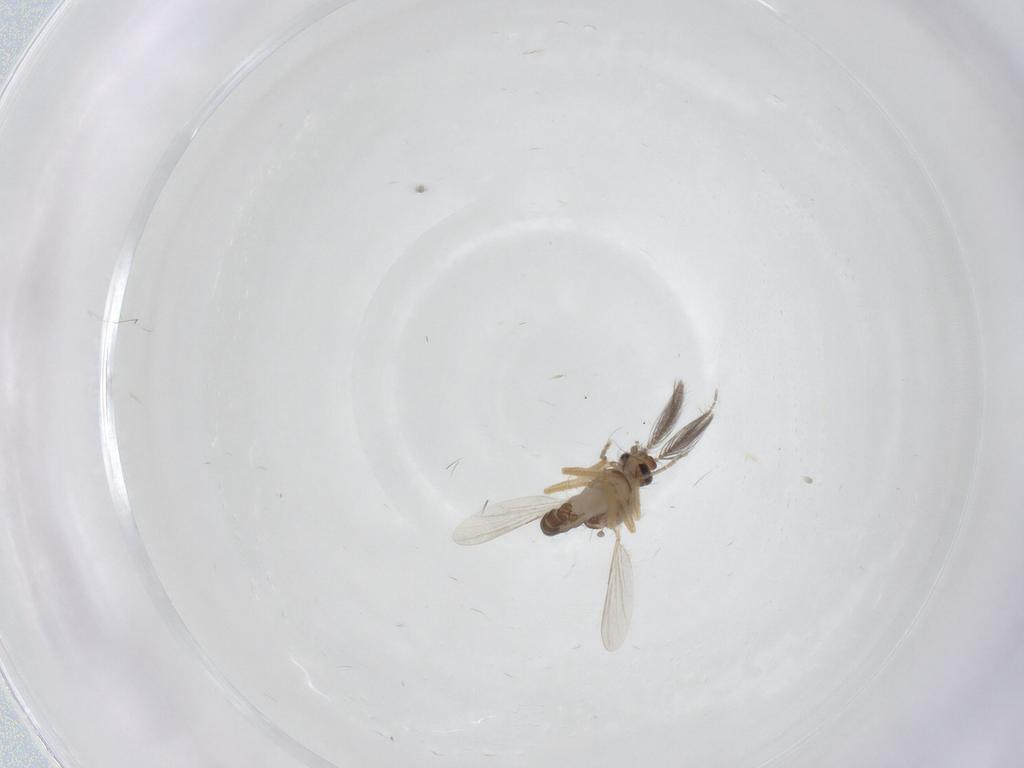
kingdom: Animalia
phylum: Arthropoda
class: Insecta
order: Diptera
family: Ceratopogonidae
